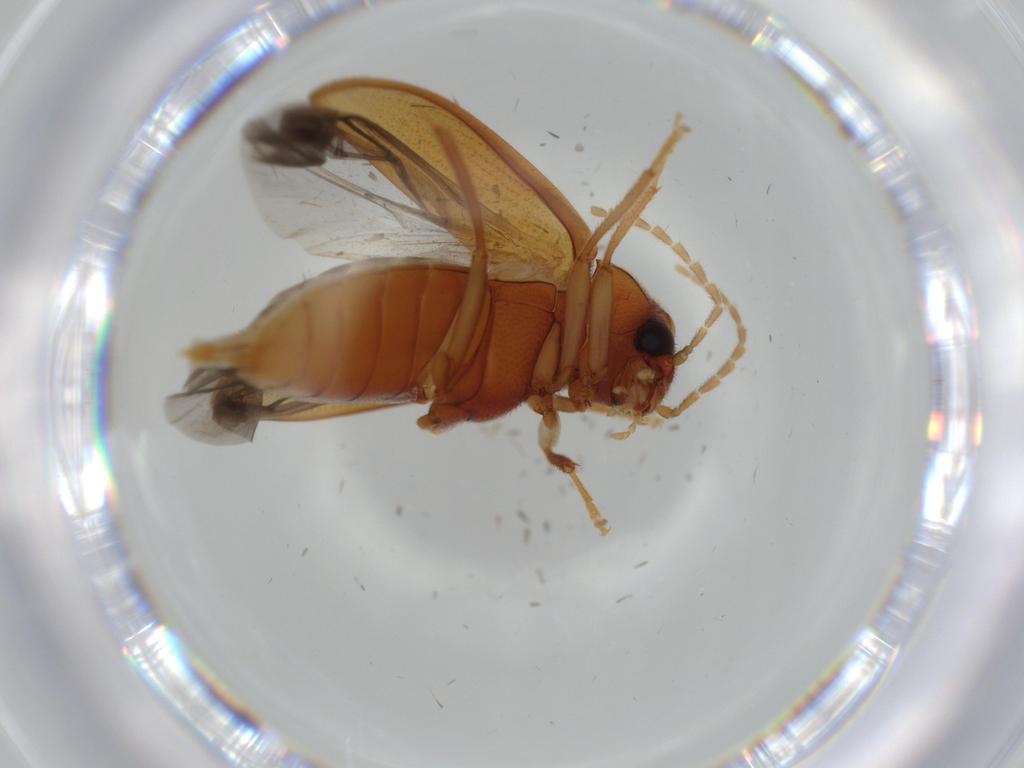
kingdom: Animalia
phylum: Arthropoda
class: Insecta
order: Coleoptera
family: Ptilodactylidae
